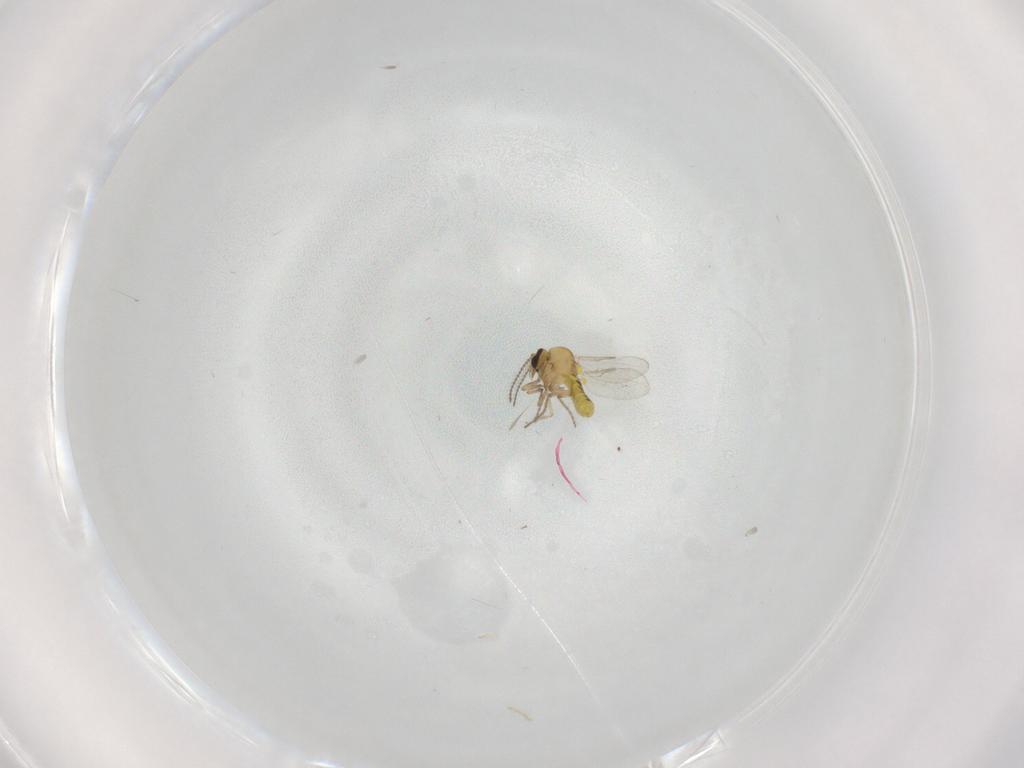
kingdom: Animalia
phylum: Arthropoda
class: Insecta
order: Diptera
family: Ceratopogonidae
